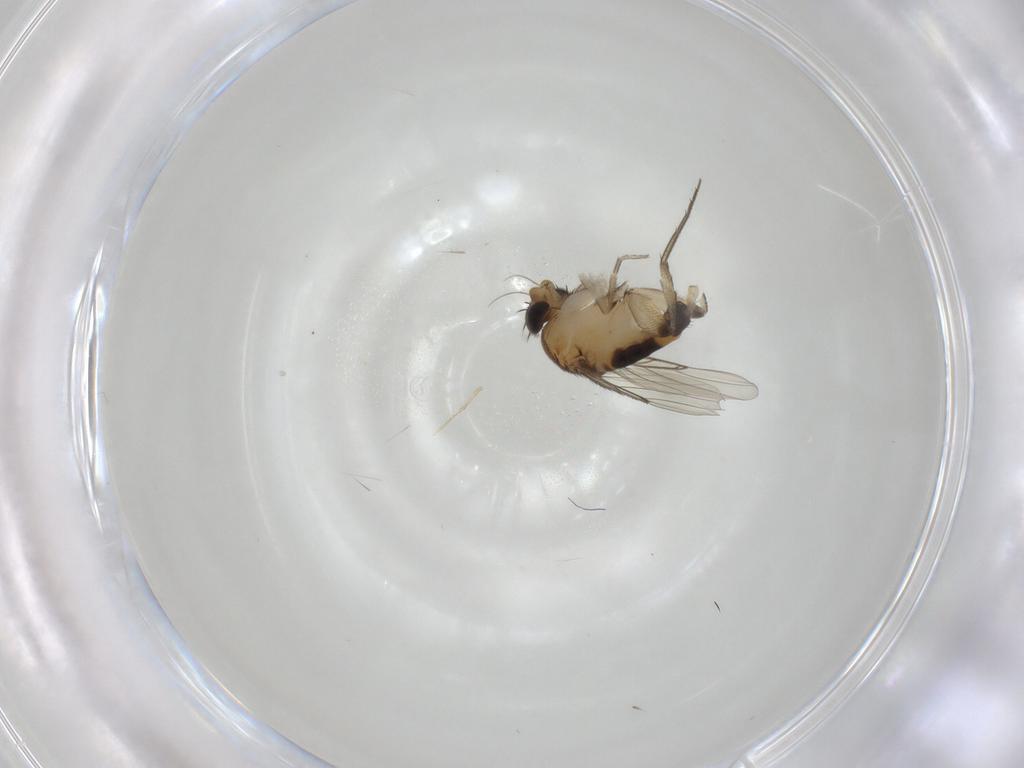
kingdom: Animalia
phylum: Arthropoda
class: Insecta
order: Diptera
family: Phoridae
